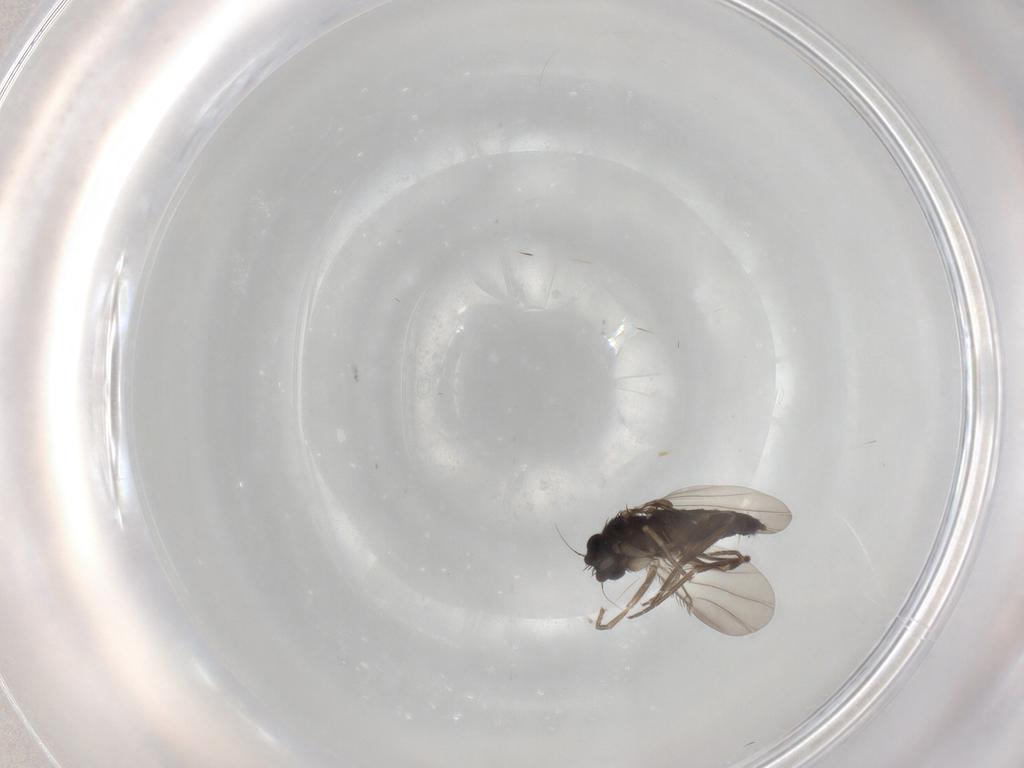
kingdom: Animalia
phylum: Arthropoda
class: Insecta
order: Diptera
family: Phoridae
